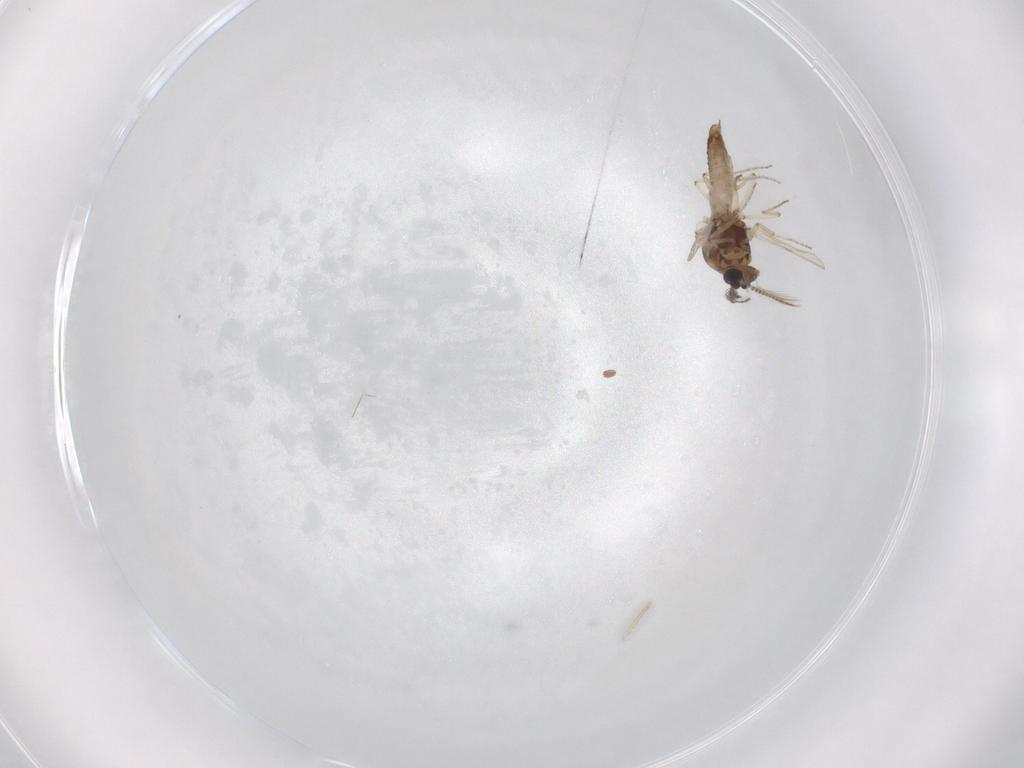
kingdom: Animalia
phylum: Arthropoda
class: Insecta
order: Diptera
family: Ceratopogonidae
